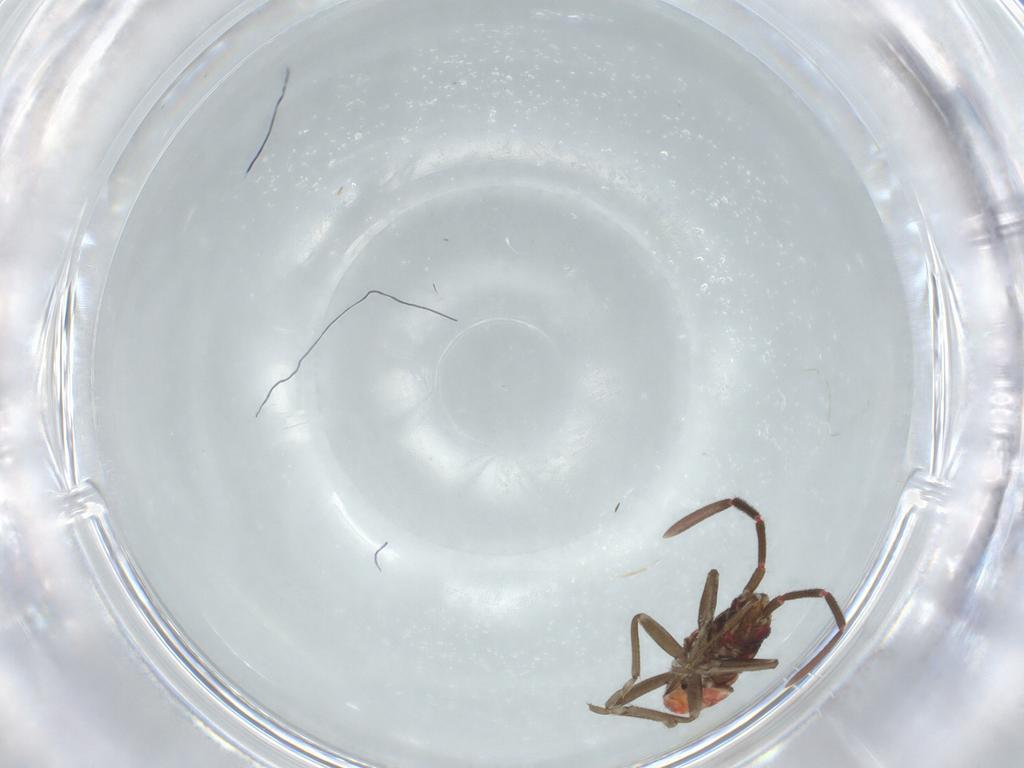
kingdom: Animalia
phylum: Arthropoda
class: Insecta
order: Hemiptera
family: Rhyparochromidae
